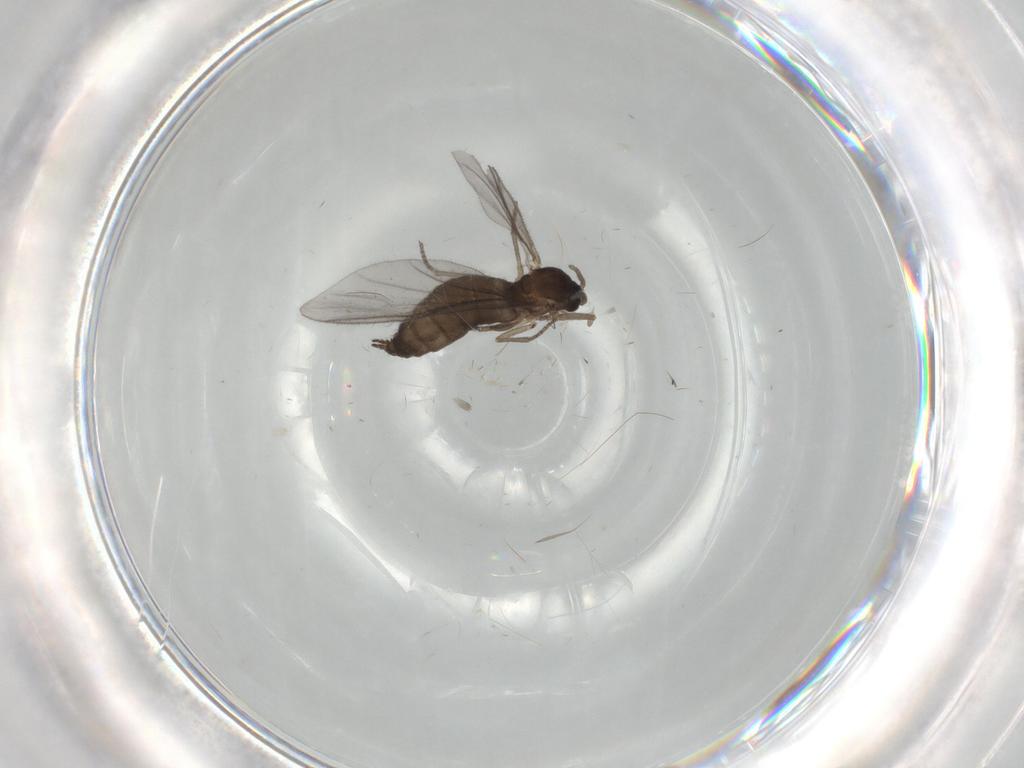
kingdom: Animalia
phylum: Arthropoda
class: Insecta
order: Diptera
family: Sciaridae
